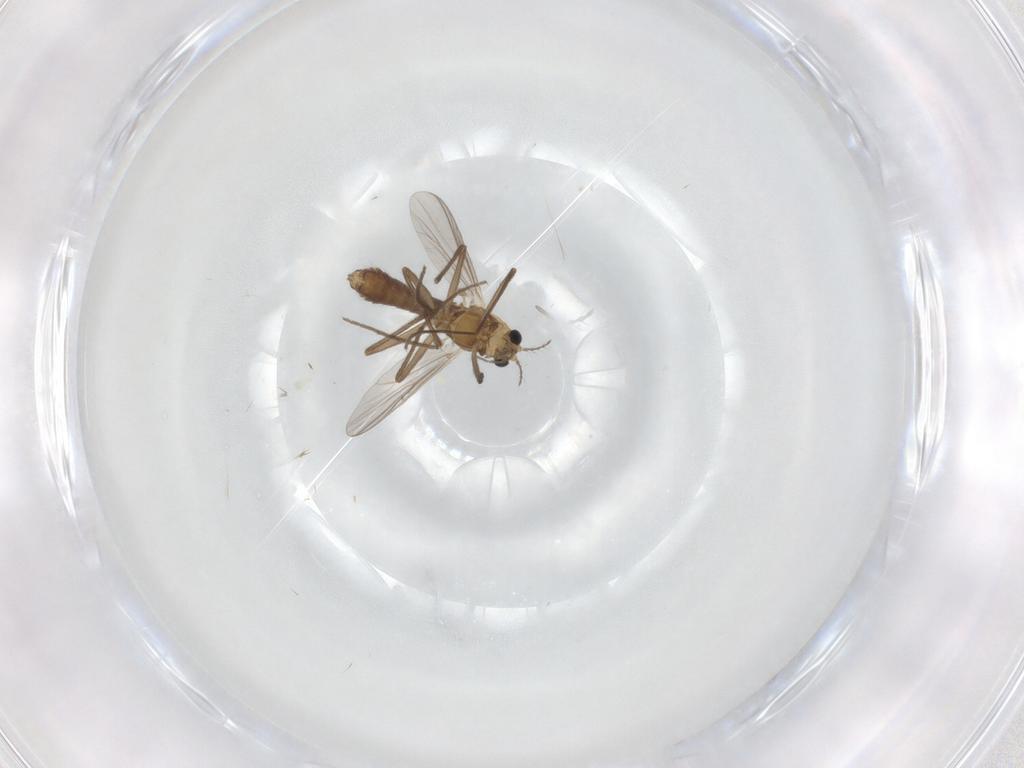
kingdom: Animalia
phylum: Arthropoda
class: Insecta
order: Diptera
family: Chironomidae
